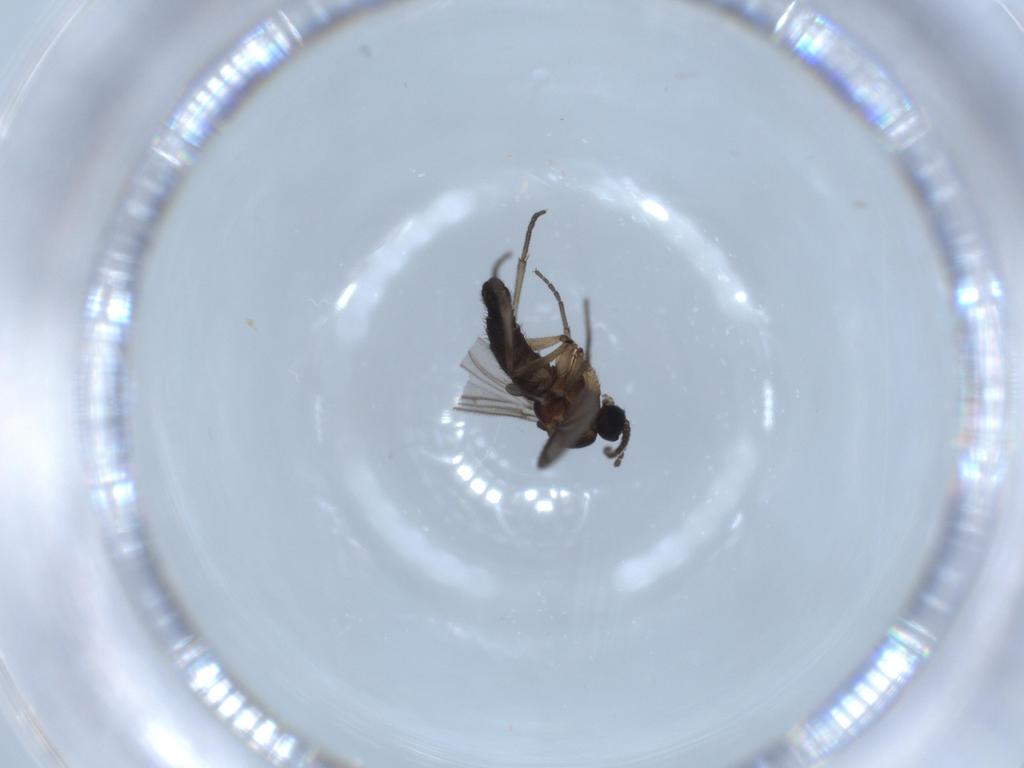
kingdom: Animalia
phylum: Arthropoda
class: Insecta
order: Diptera
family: Sciaridae
